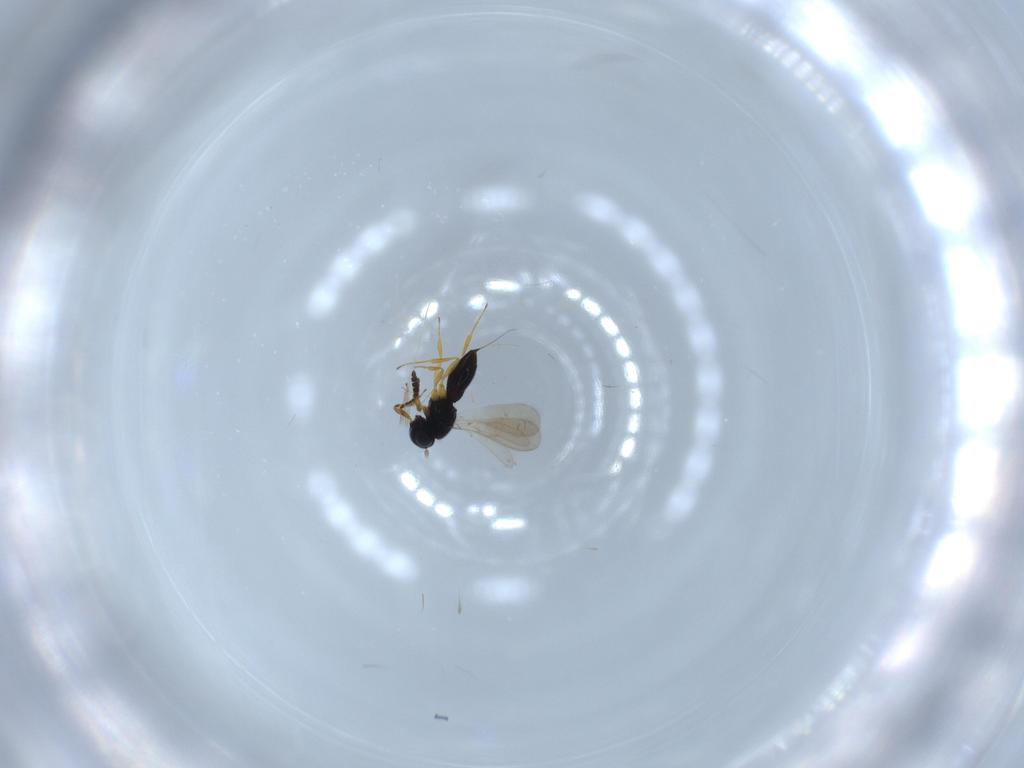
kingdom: Animalia
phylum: Arthropoda
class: Insecta
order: Hymenoptera
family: Scelionidae
